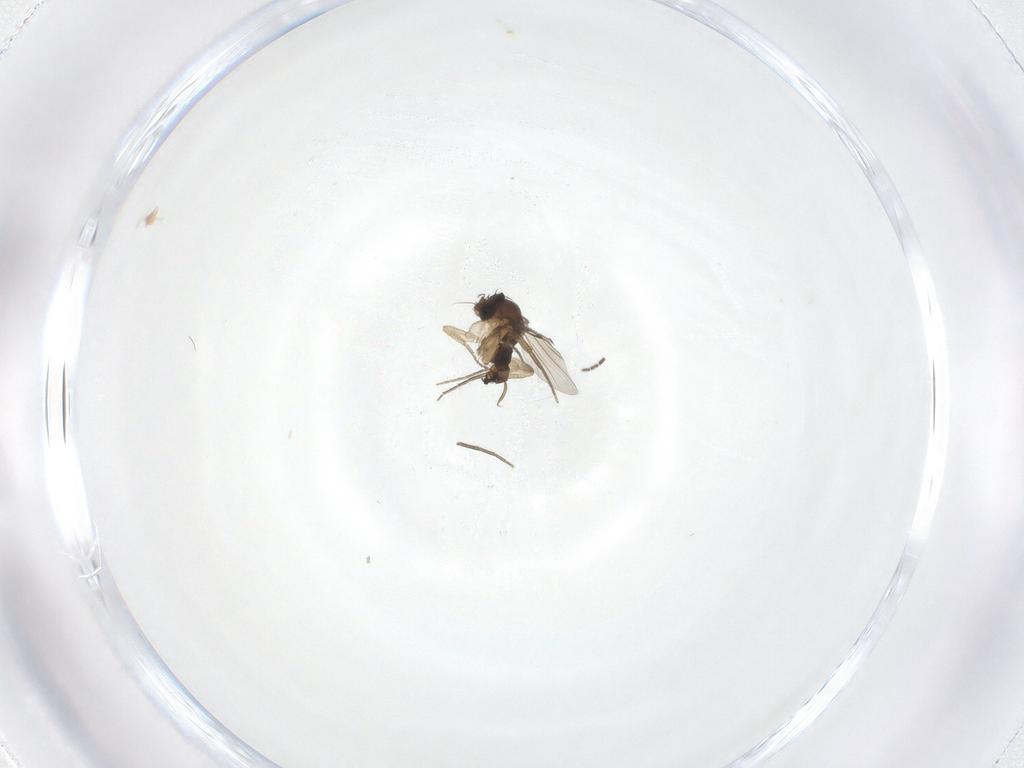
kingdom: Animalia
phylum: Arthropoda
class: Insecta
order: Diptera
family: Phoridae
